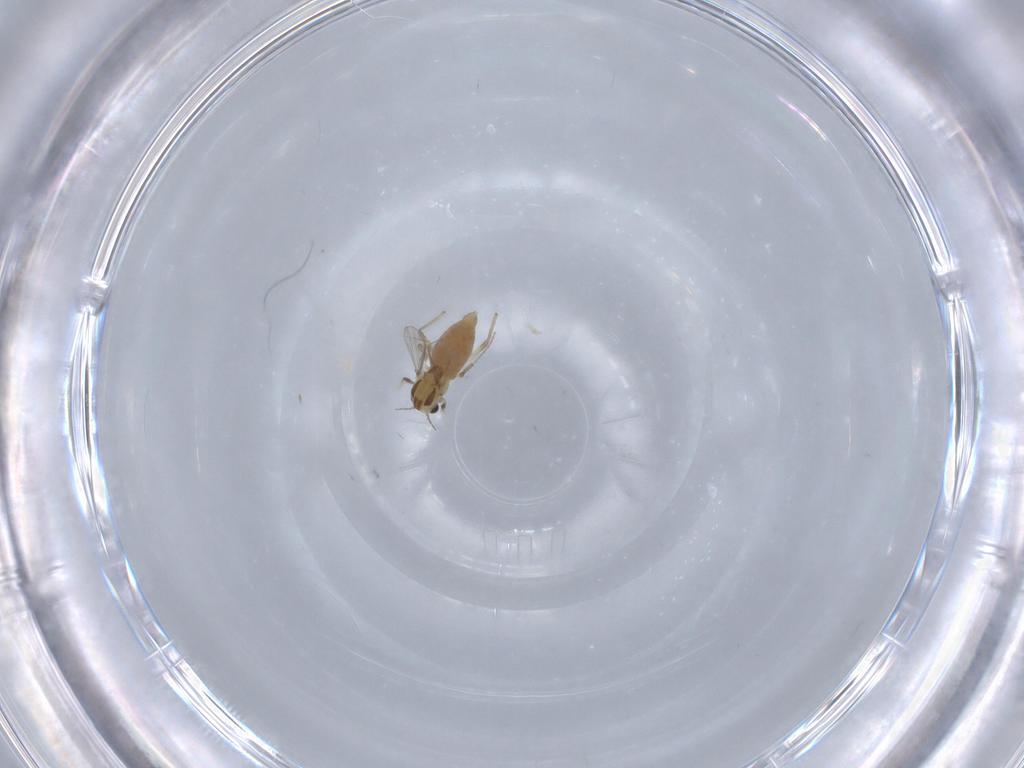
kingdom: Animalia
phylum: Arthropoda
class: Insecta
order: Diptera
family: Chironomidae
